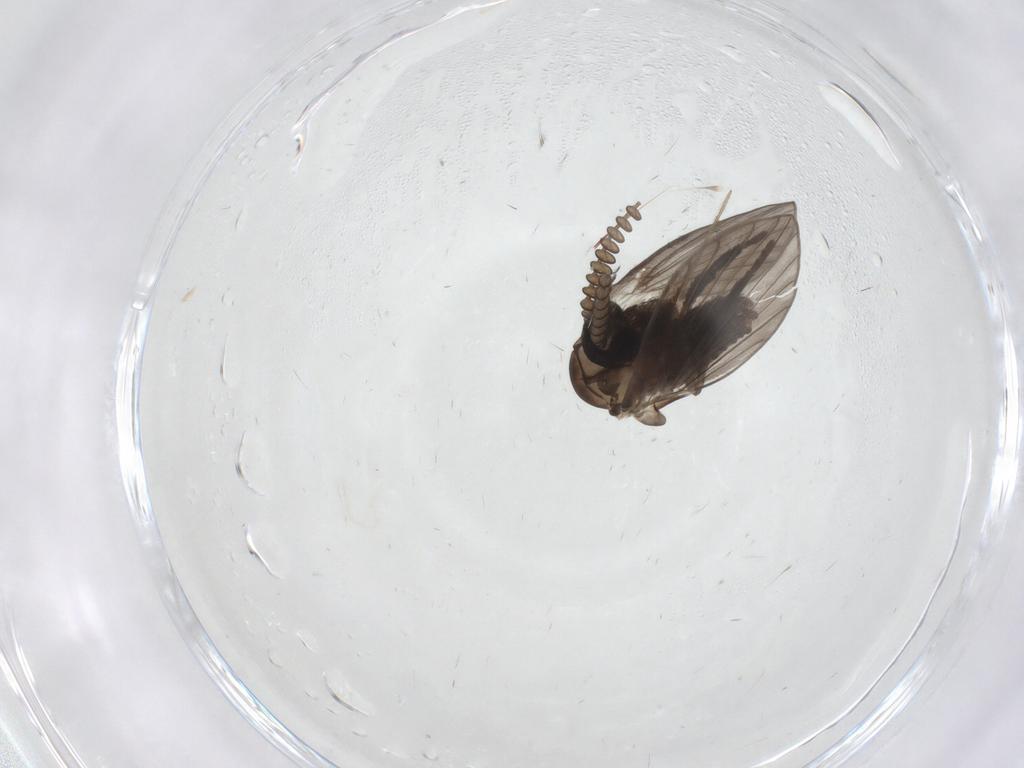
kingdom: Animalia
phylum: Arthropoda
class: Insecta
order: Diptera
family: Psychodidae
